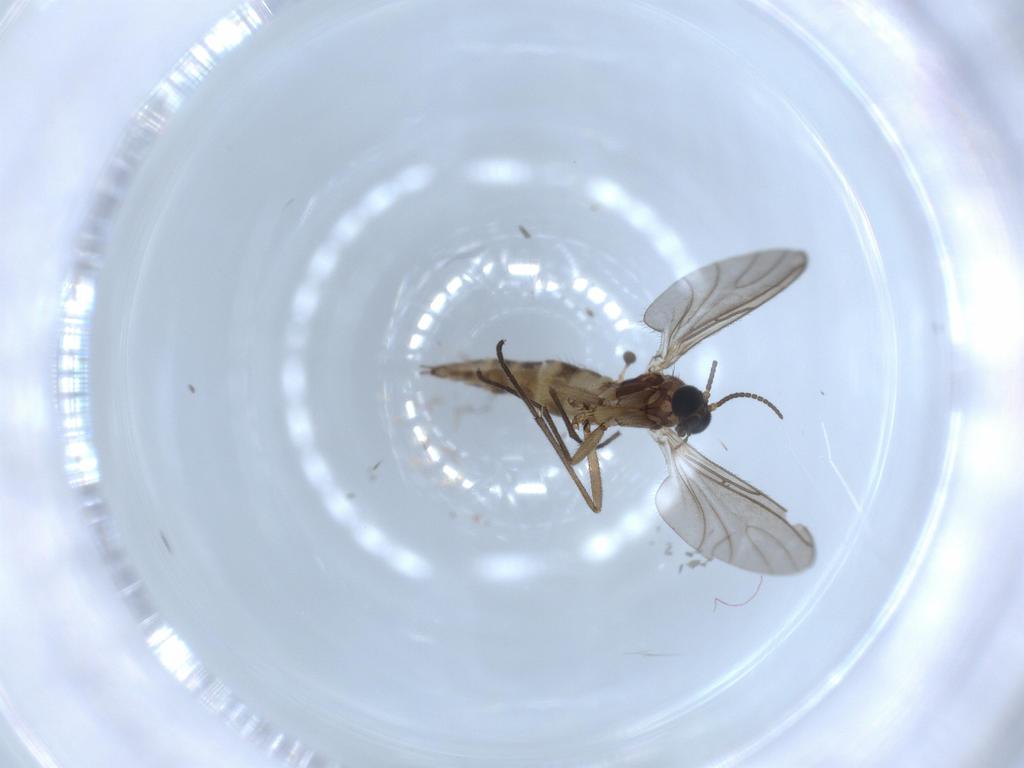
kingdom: Animalia
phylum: Arthropoda
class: Insecta
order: Diptera
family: Sciaridae
